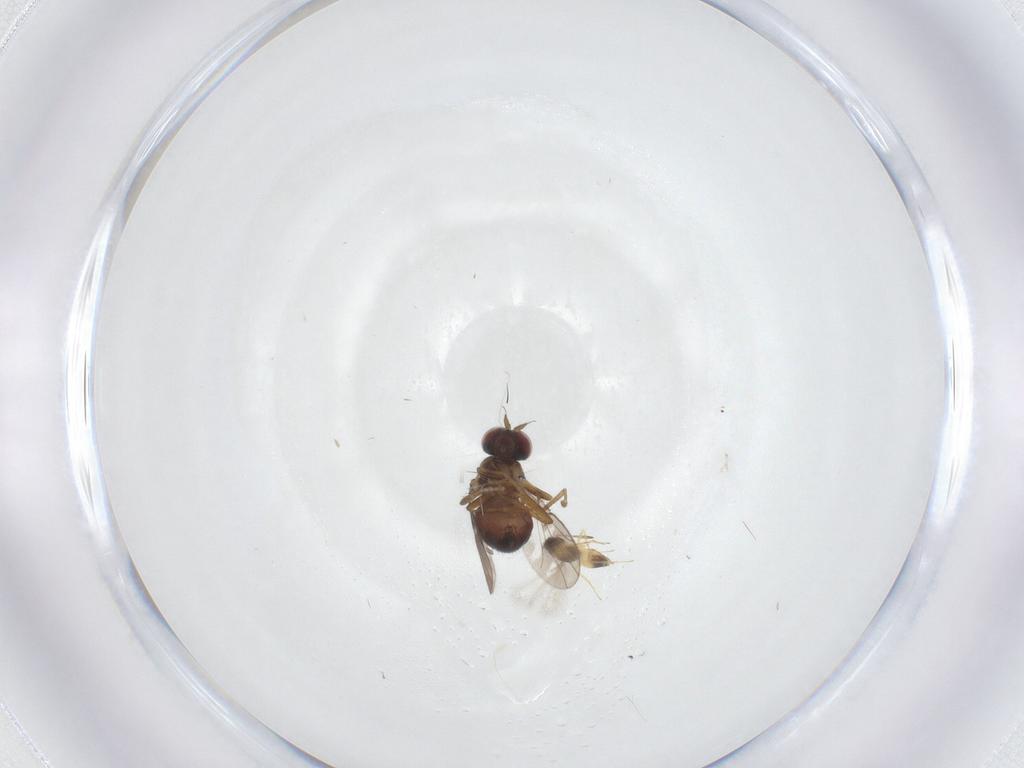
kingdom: Animalia
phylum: Arthropoda
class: Insecta
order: Diptera
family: Ephydridae
